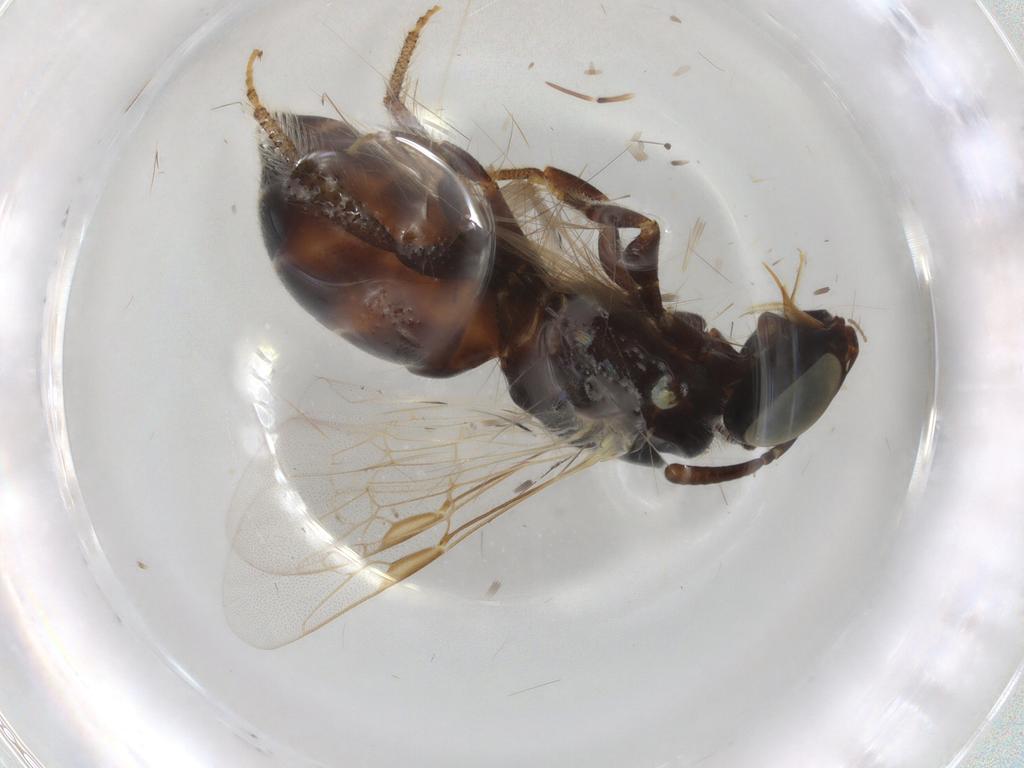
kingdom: Animalia
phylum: Arthropoda
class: Insecta
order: Hymenoptera
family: Apidae
